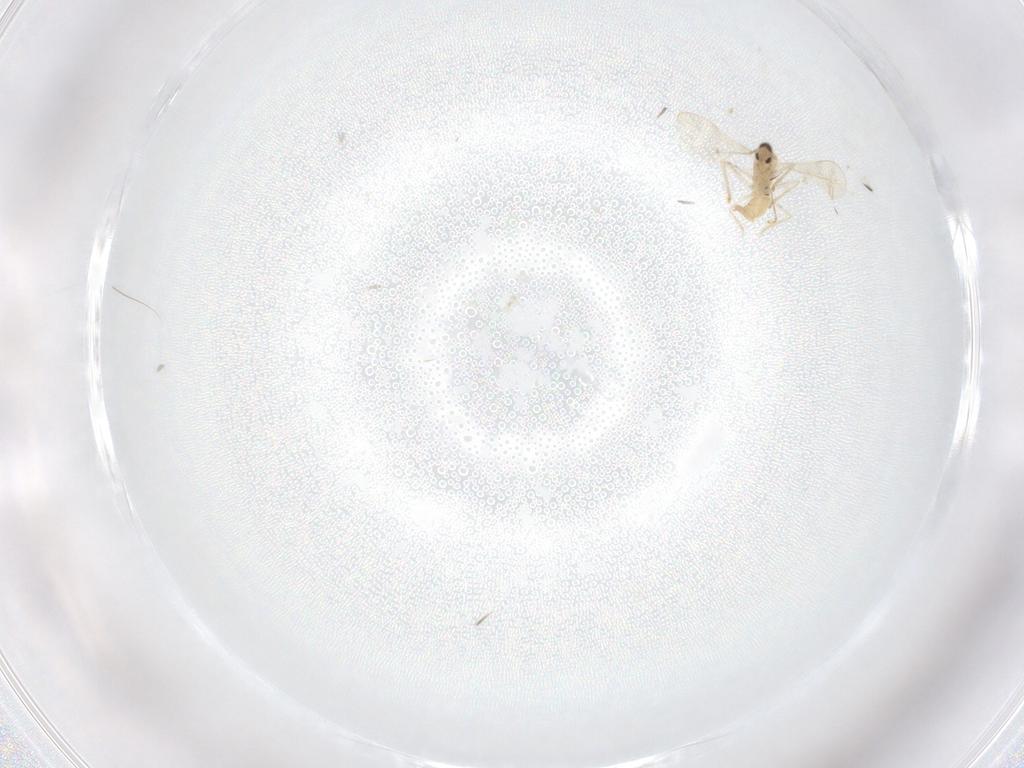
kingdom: Animalia
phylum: Arthropoda
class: Insecta
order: Diptera
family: Cecidomyiidae
